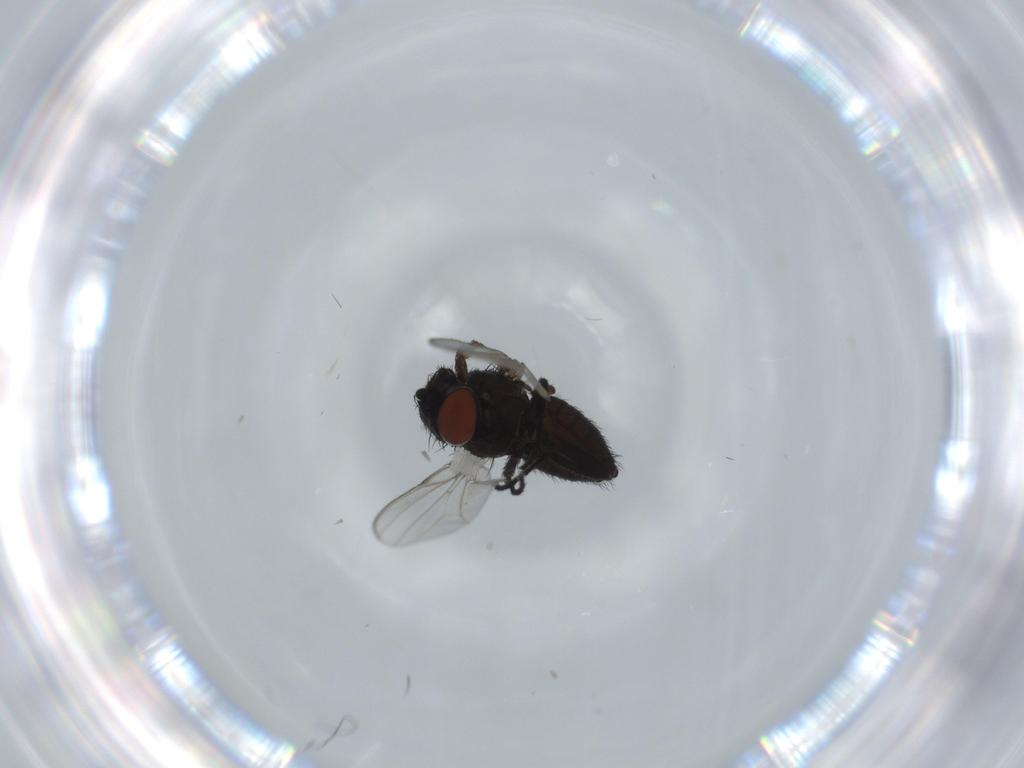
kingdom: Animalia
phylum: Arthropoda
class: Insecta
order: Diptera
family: Milichiidae
